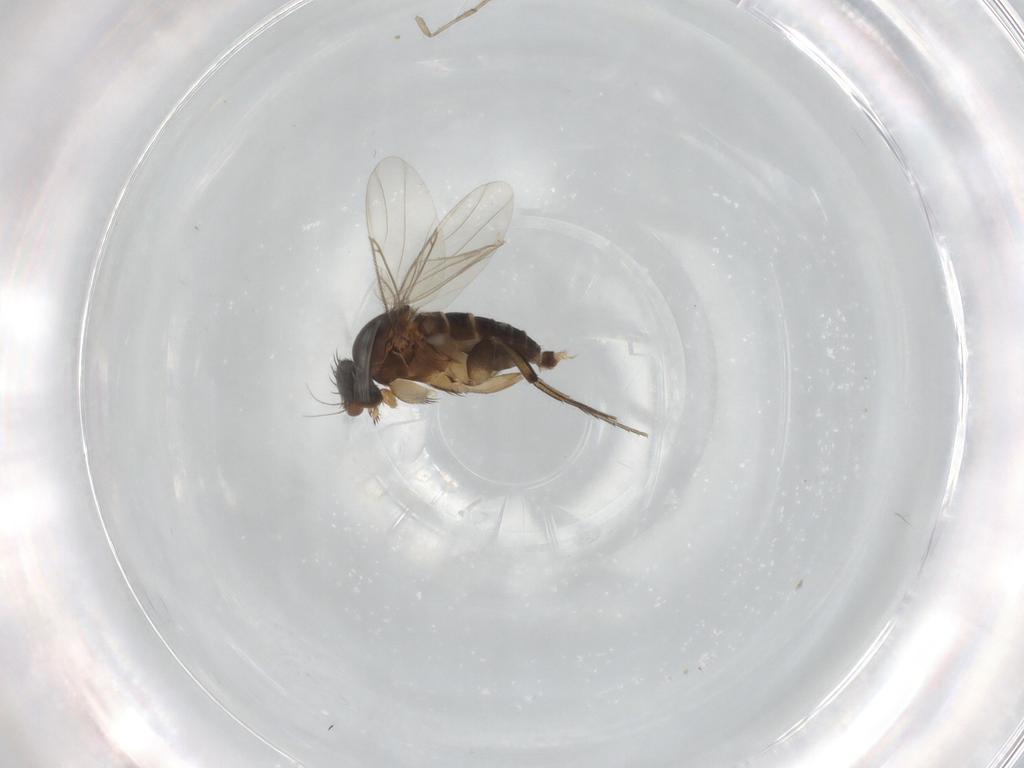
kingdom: Animalia
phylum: Arthropoda
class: Insecta
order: Diptera
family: Phoridae
